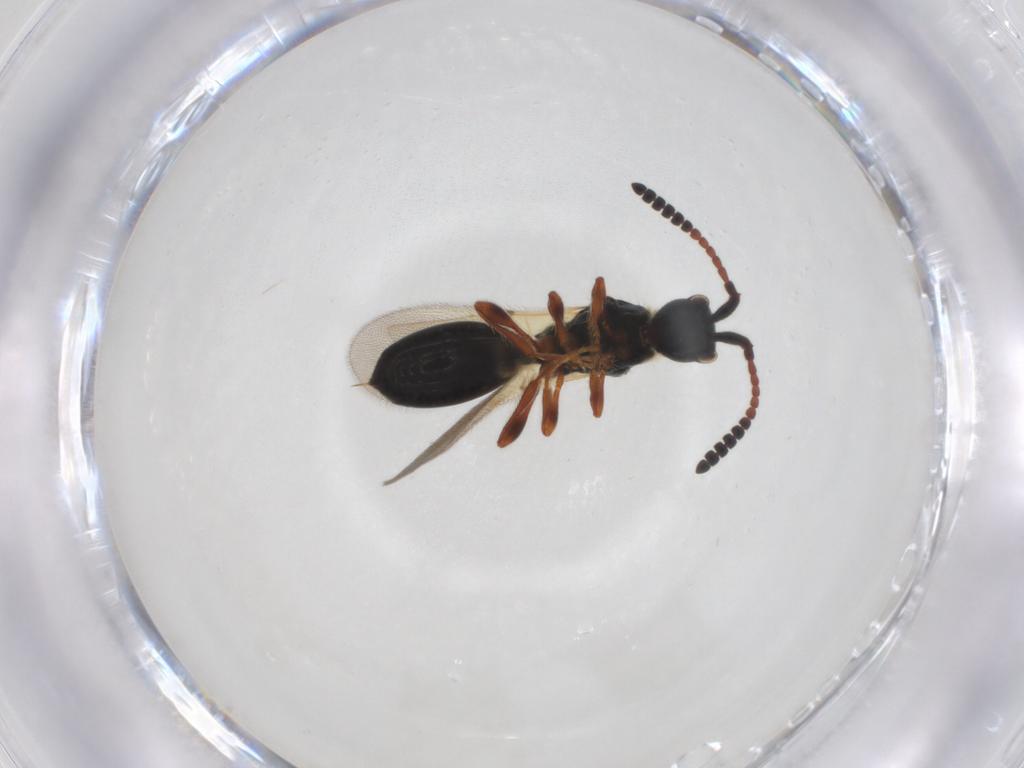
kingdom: Animalia
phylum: Arthropoda
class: Insecta
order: Hymenoptera
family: Diapriidae
